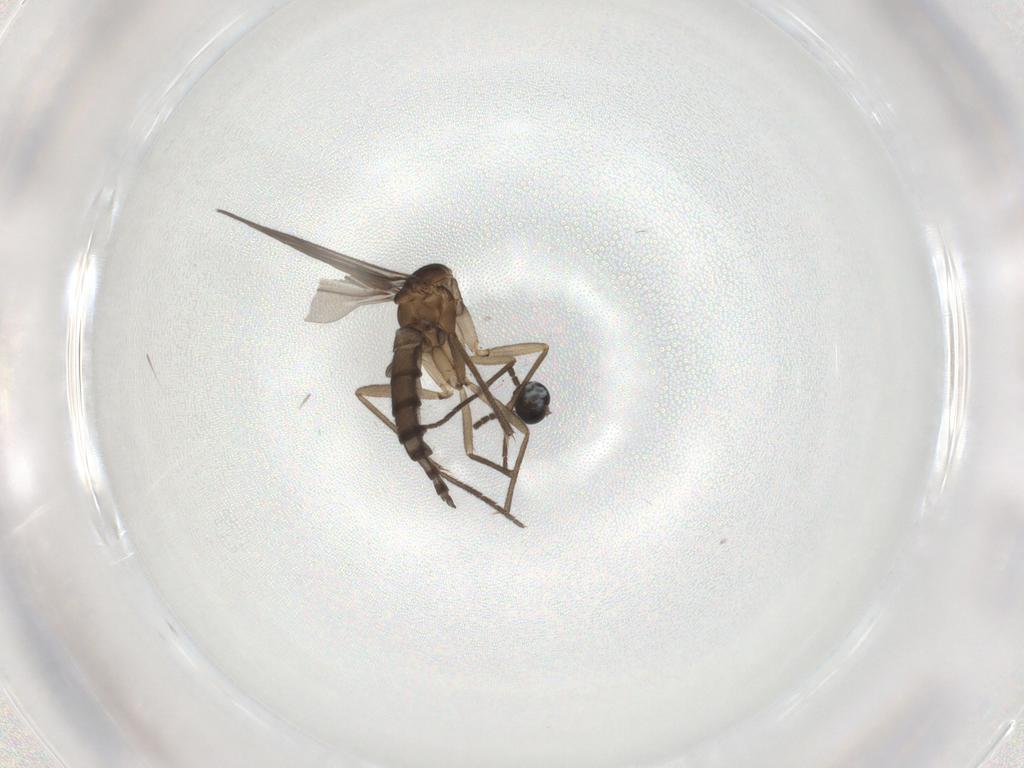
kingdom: Animalia
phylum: Arthropoda
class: Insecta
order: Diptera
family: Sciaridae
